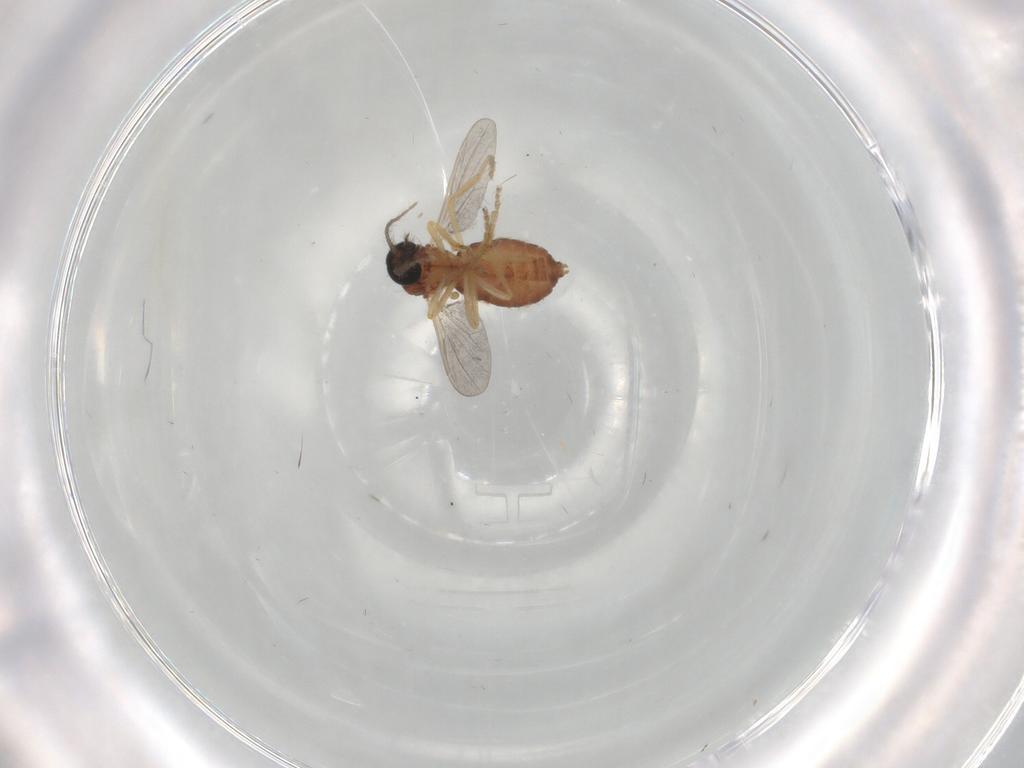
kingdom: Animalia
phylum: Arthropoda
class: Insecta
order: Diptera
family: Ceratopogonidae
